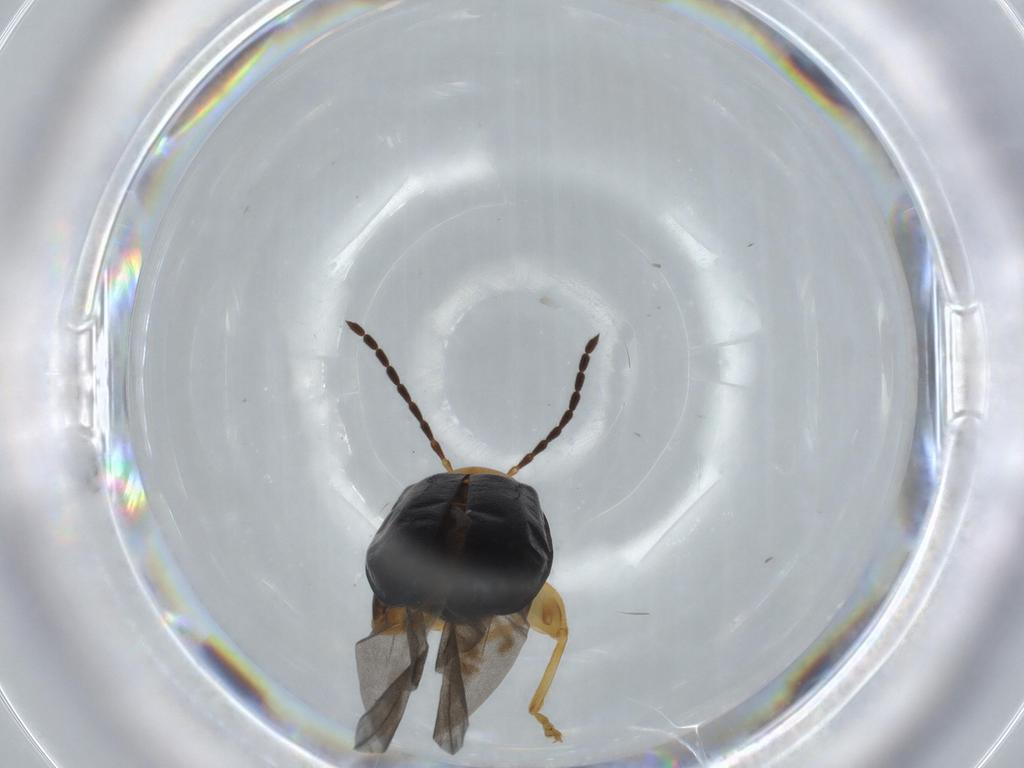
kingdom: Animalia
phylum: Arthropoda
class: Insecta
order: Coleoptera
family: Chrysomelidae
